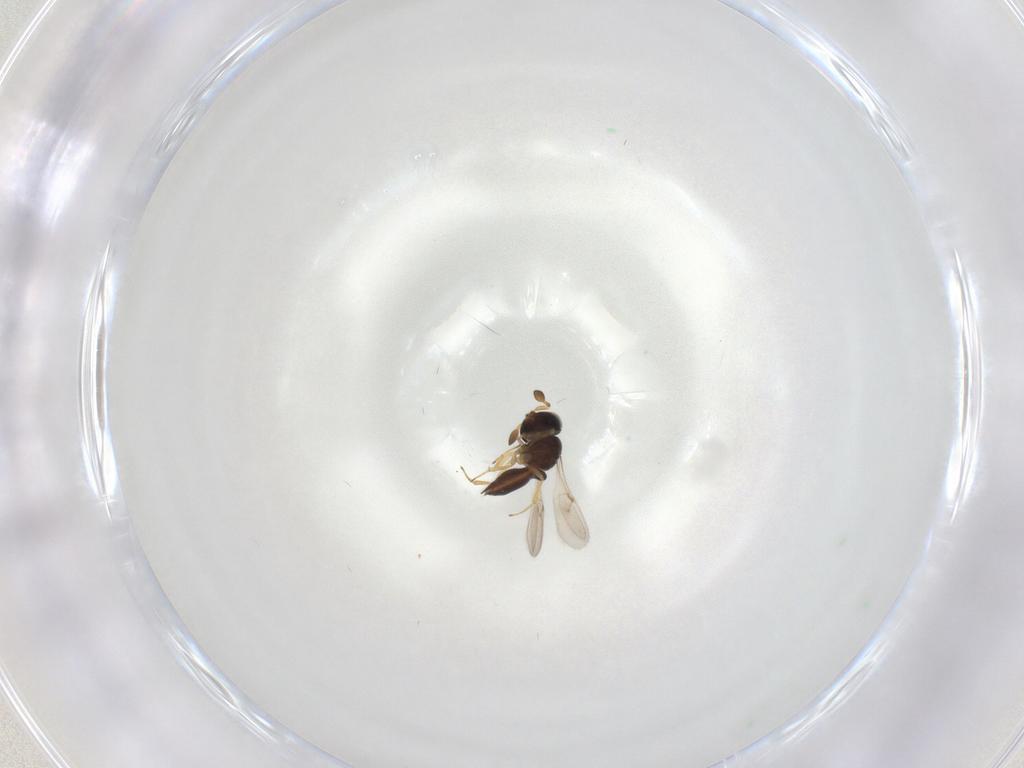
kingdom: Animalia
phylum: Arthropoda
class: Insecta
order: Hymenoptera
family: Scelionidae
